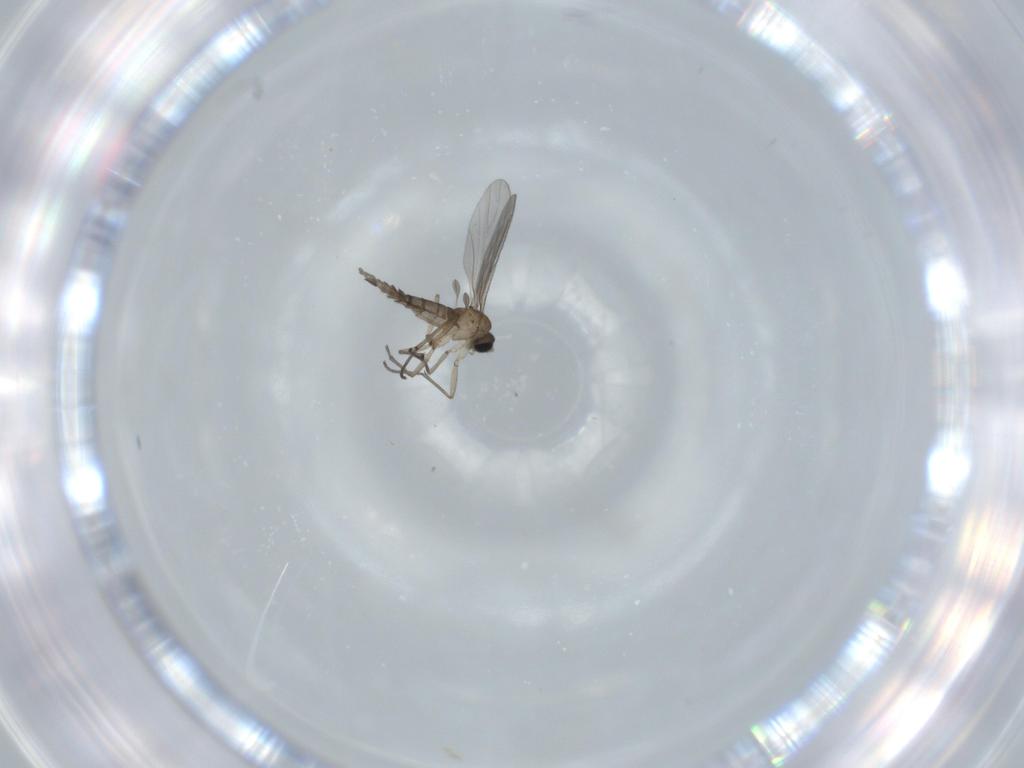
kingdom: Animalia
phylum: Arthropoda
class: Insecta
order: Diptera
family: Sciaridae
